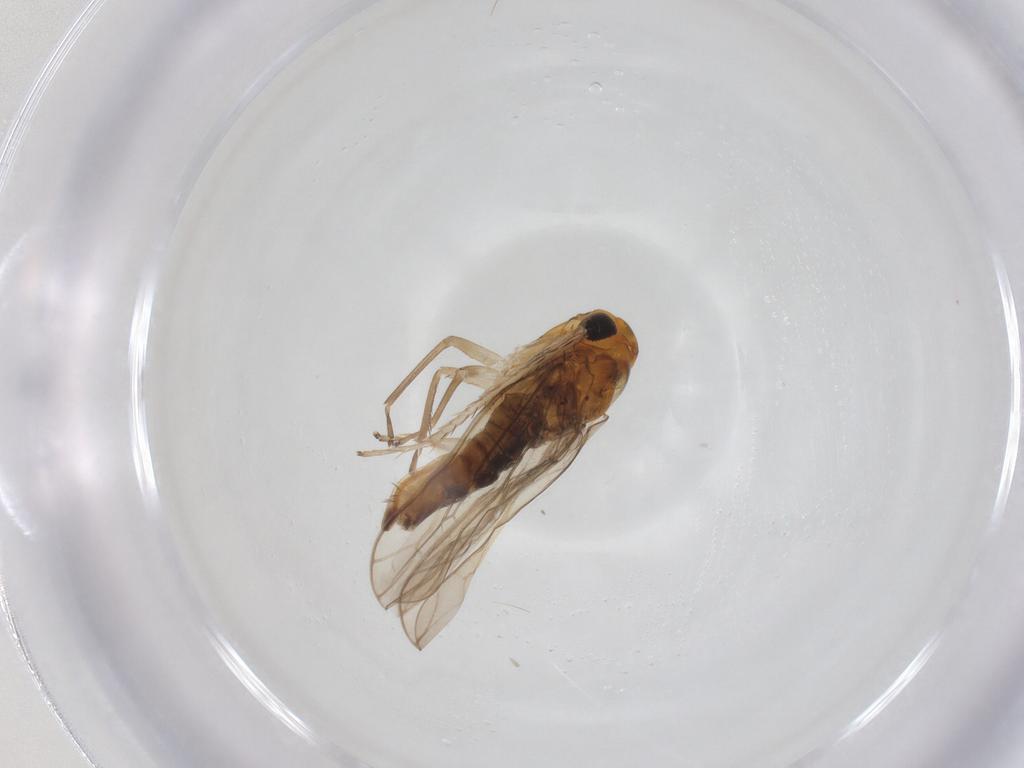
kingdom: Animalia
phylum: Arthropoda
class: Insecta
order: Hemiptera
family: Cicadellidae
